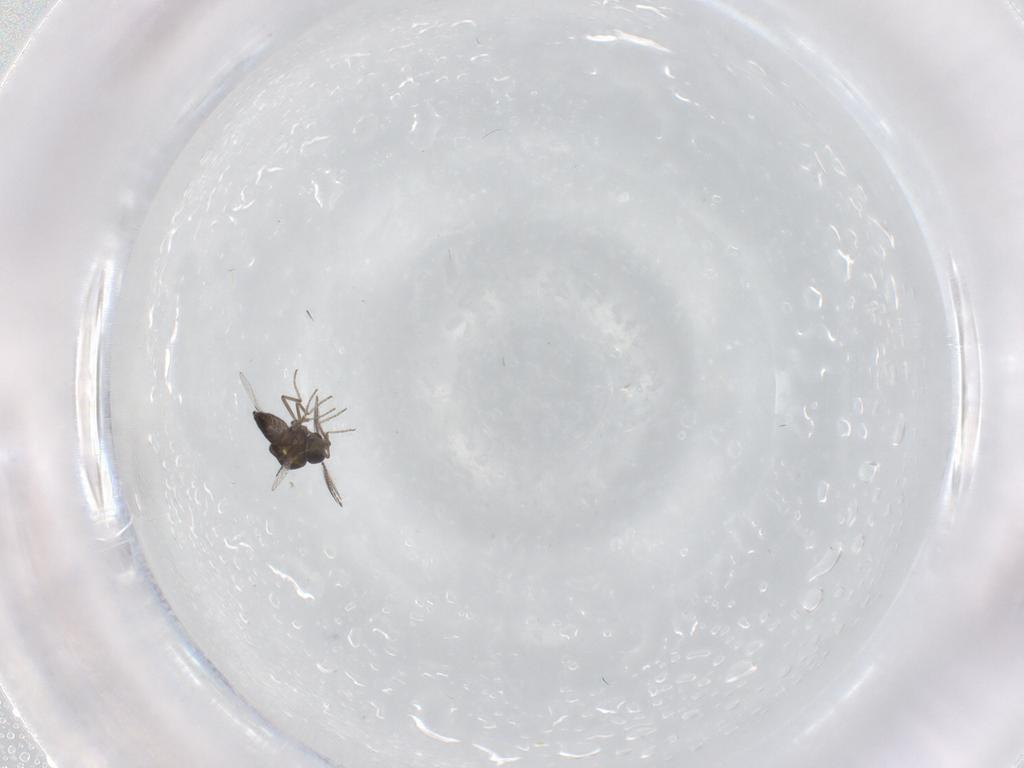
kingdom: Animalia
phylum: Arthropoda
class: Insecta
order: Diptera
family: Ceratopogonidae
